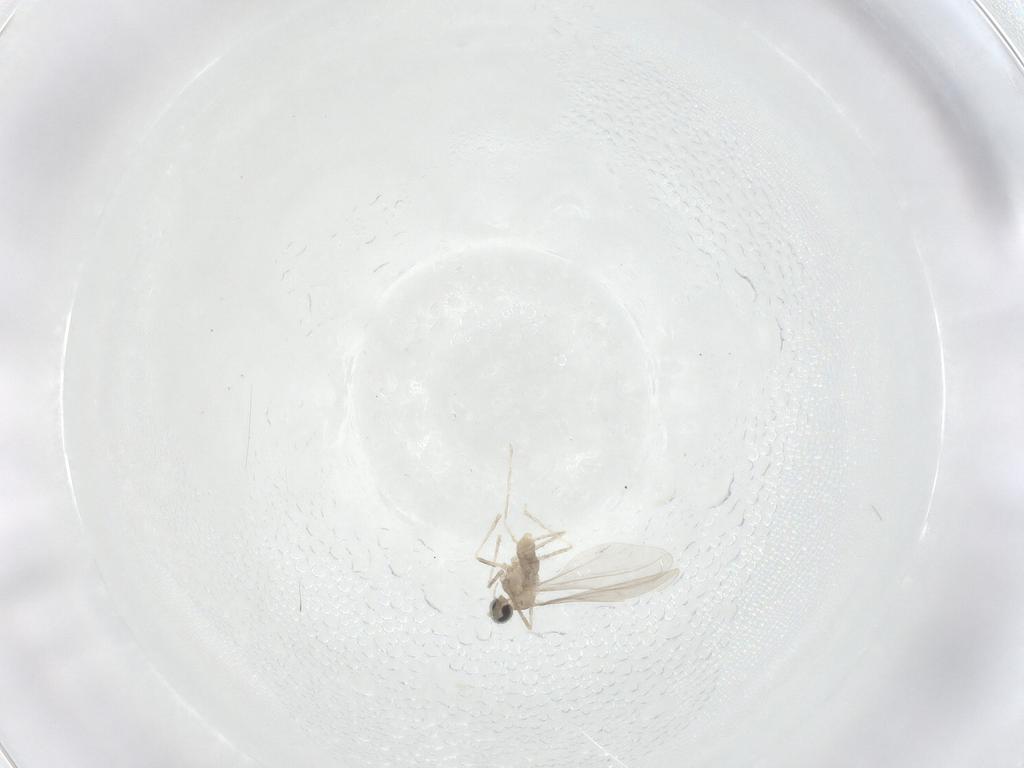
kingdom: Animalia
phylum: Arthropoda
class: Insecta
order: Diptera
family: Cecidomyiidae
